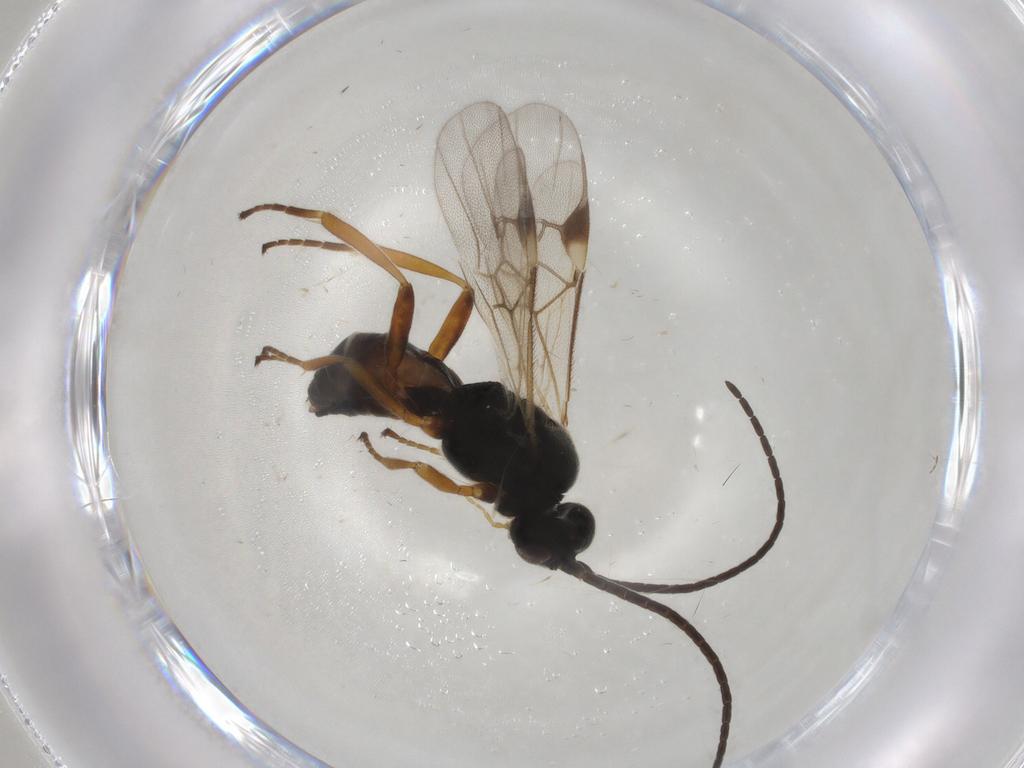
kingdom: Animalia
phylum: Arthropoda
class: Insecta
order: Hymenoptera
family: Braconidae
